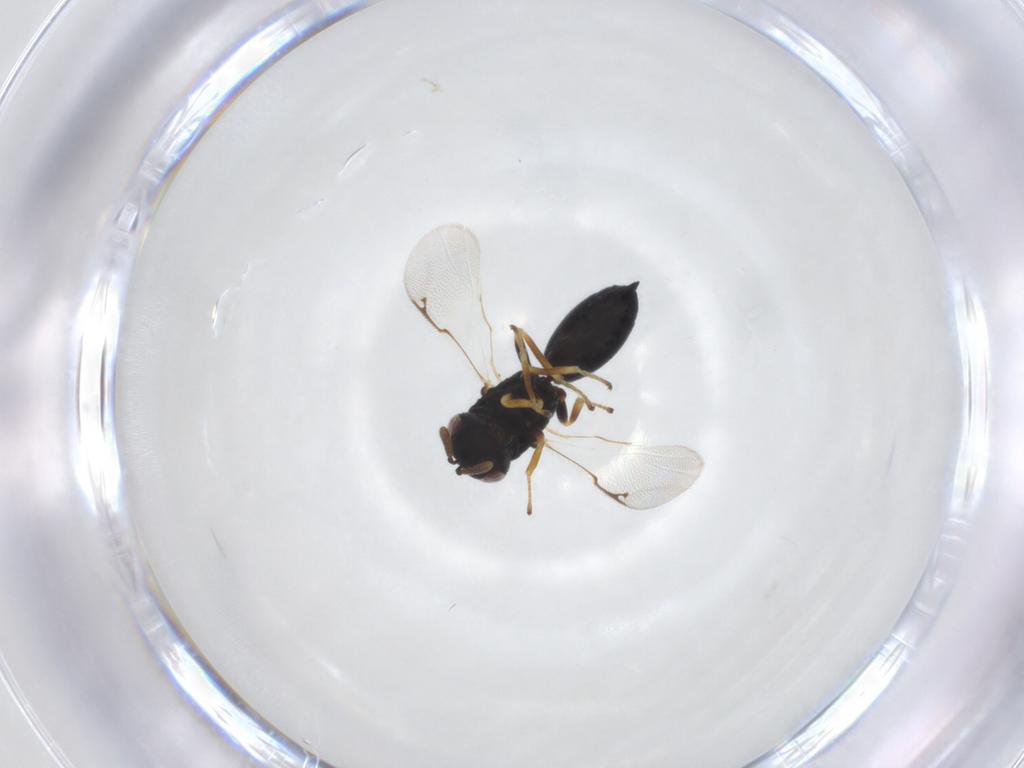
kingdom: Animalia
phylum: Arthropoda
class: Insecta
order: Hymenoptera
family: Eurytomidae
